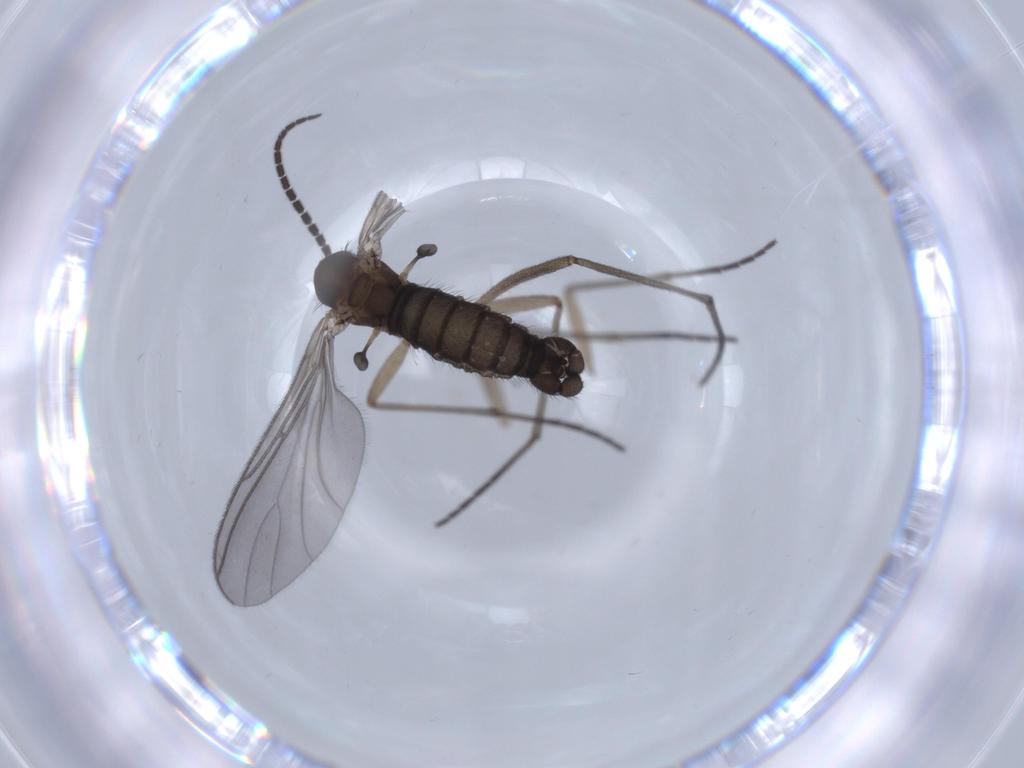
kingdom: Animalia
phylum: Arthropoda
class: Insecta
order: Diptera
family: Sciaridae
